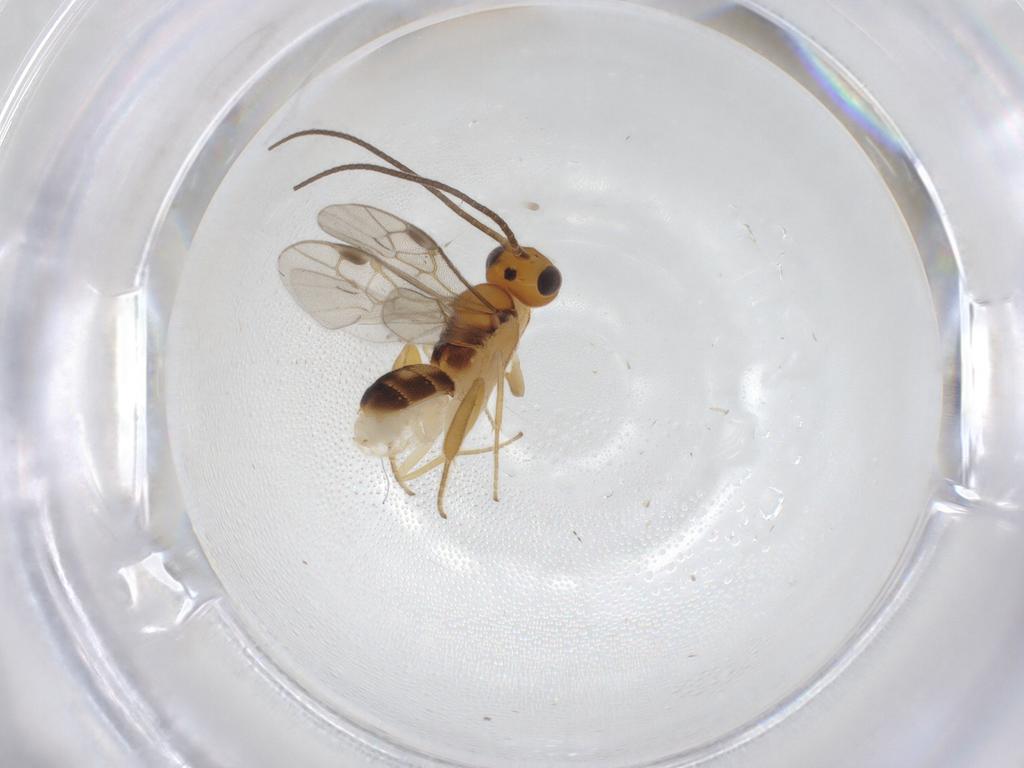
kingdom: Animalia
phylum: Arthropoda
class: Insecta
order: Hymenoptera
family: Braconidae
